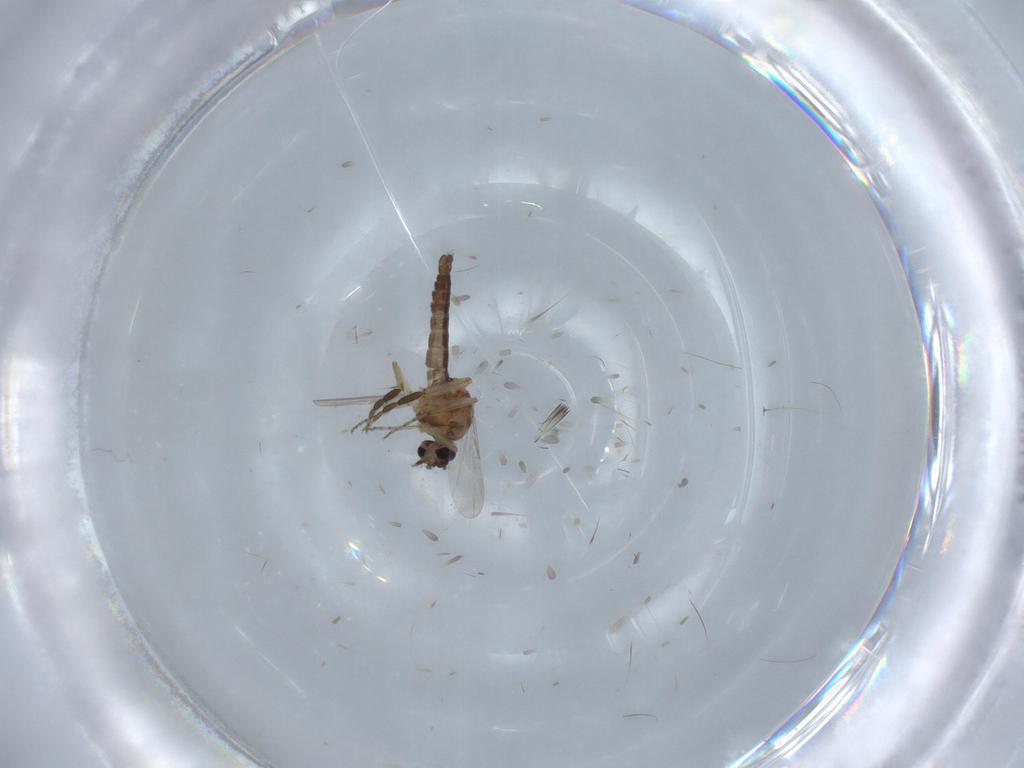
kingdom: Animalia
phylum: Arthropoda
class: Insecta
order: Diptera
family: Ceratopogonidae
